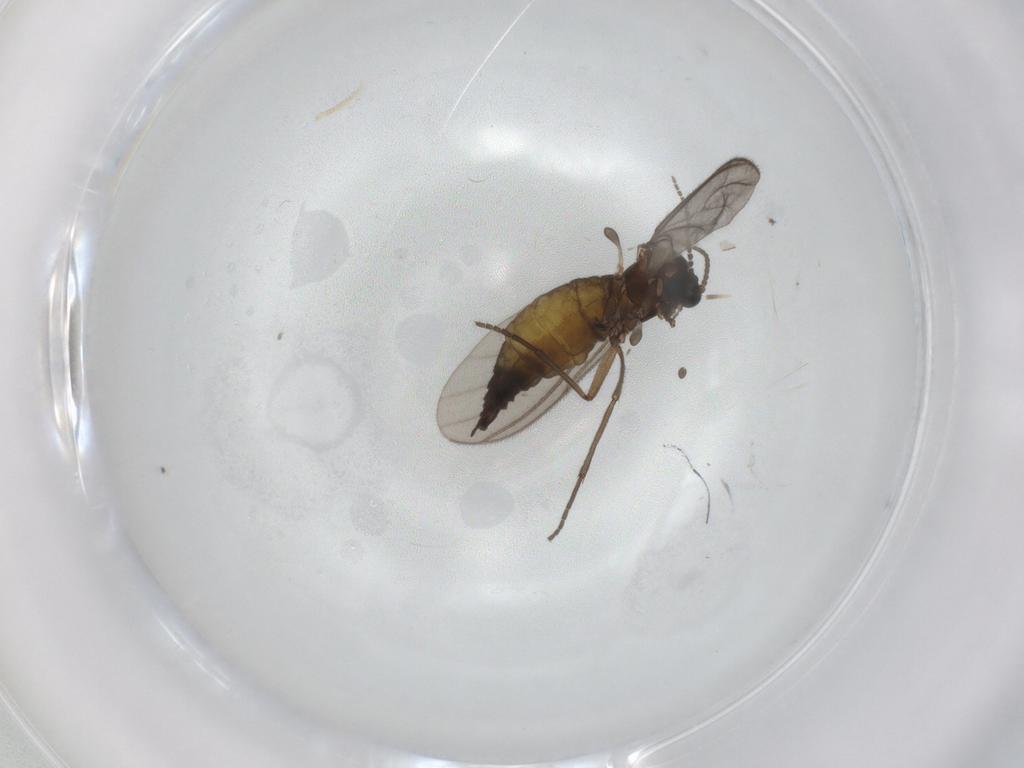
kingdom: Animalia
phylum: Arthropoda
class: Insecta
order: Diptera
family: Sciaridae
